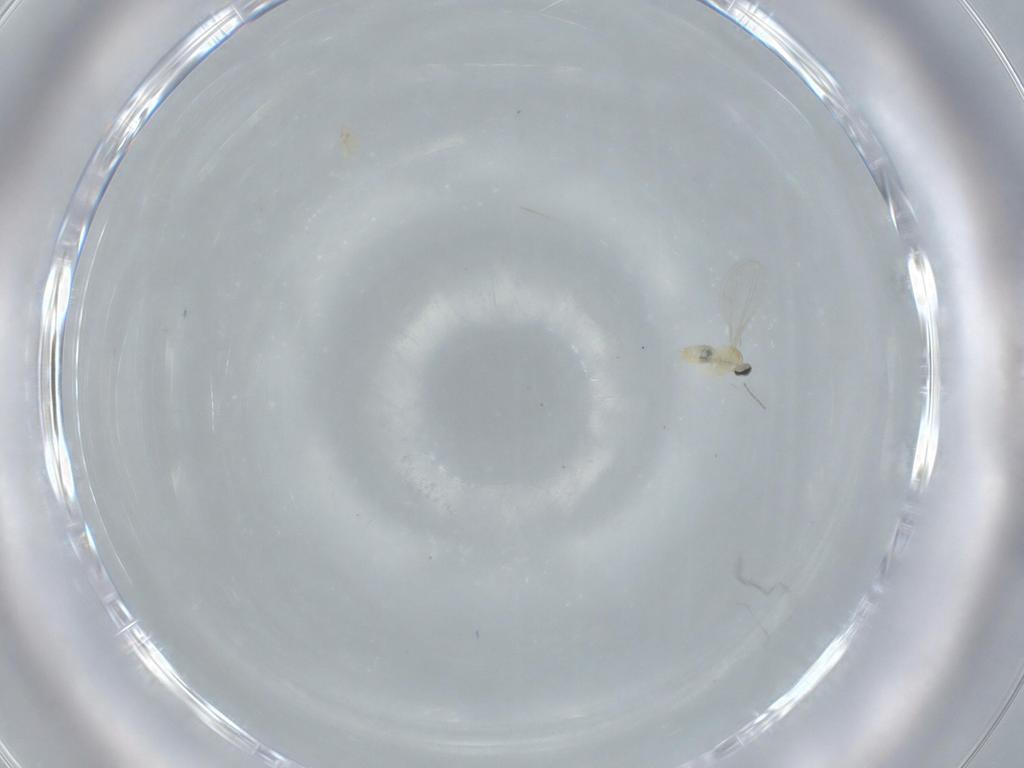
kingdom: Animalia
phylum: Arthropoda
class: Insecta
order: Diptera
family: Cecidomyiidae
